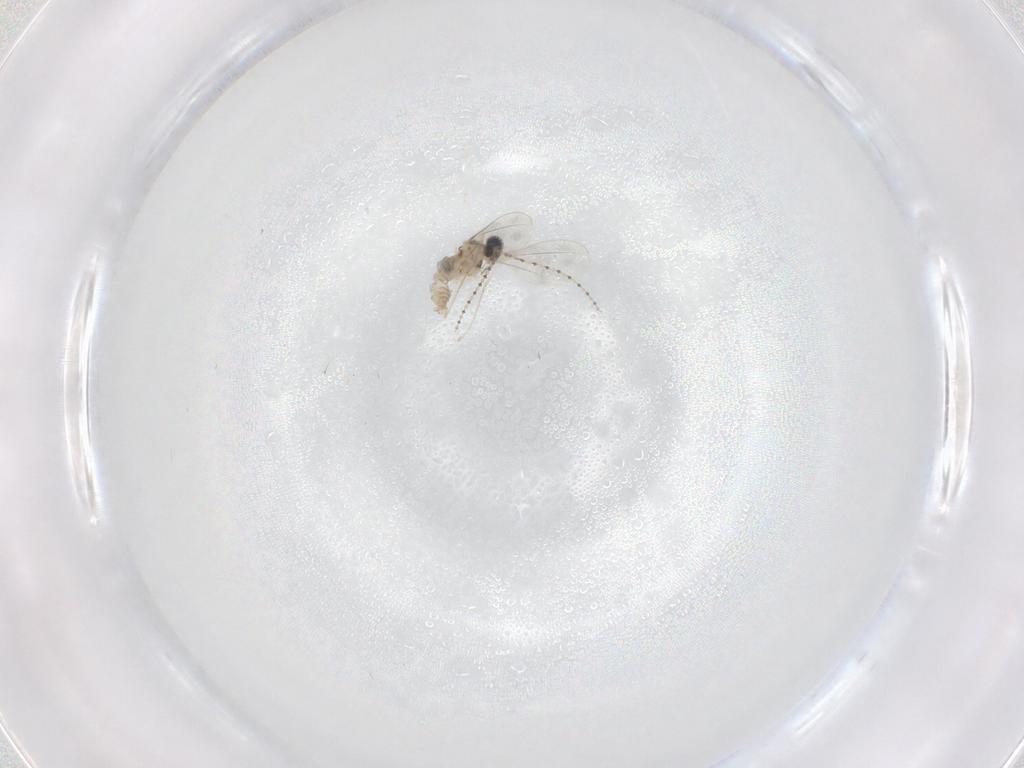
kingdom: Animalia
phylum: Arthropoda
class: Insecta
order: Diptera
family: Cecidomyiidae
